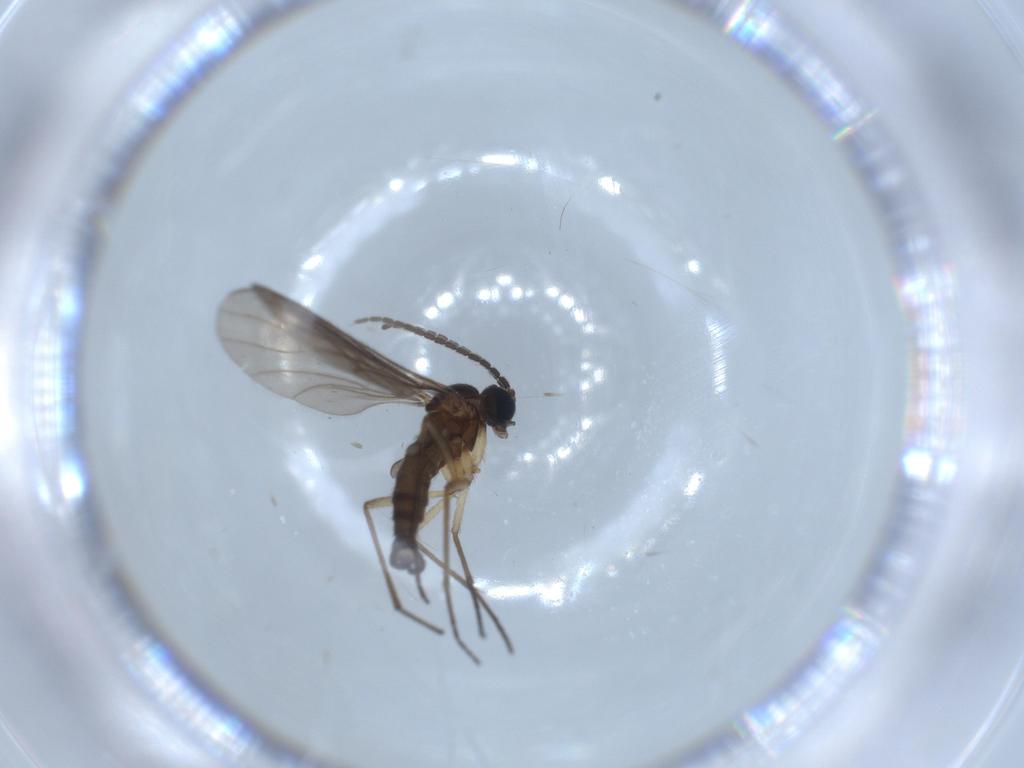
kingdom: Animalia
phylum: Arthropoda
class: Insecta
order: Diptera
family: Sciaridae
